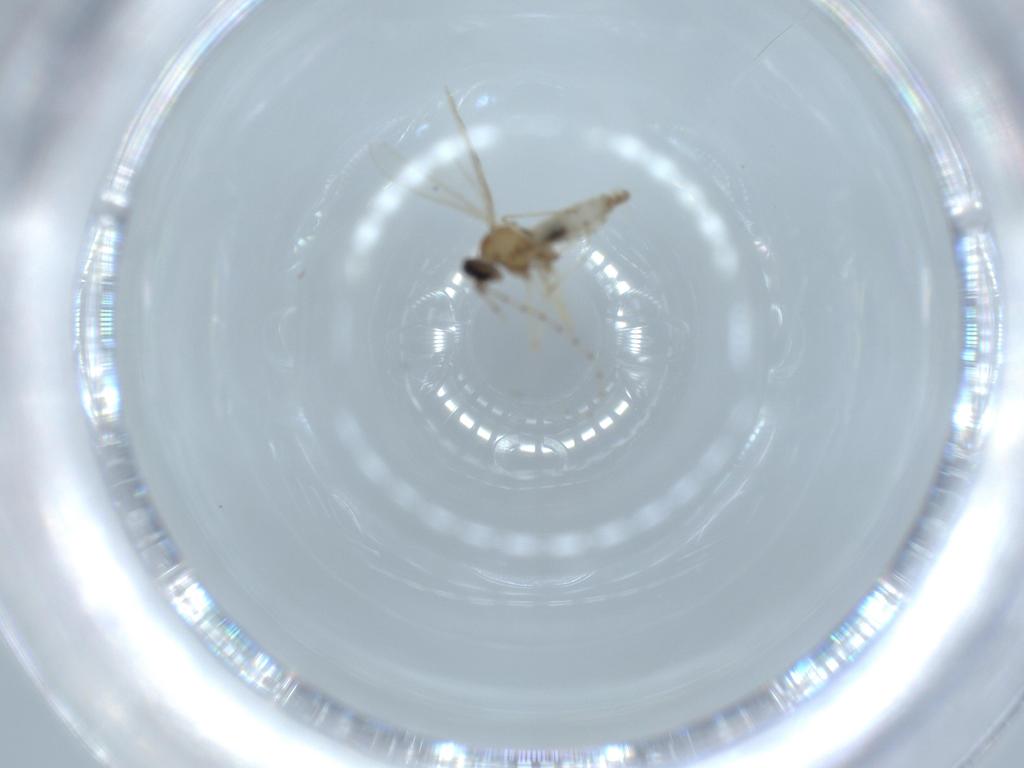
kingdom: Animalia
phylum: Arthropoda
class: Insecta
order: Diptera
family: Cecidomyiidae
